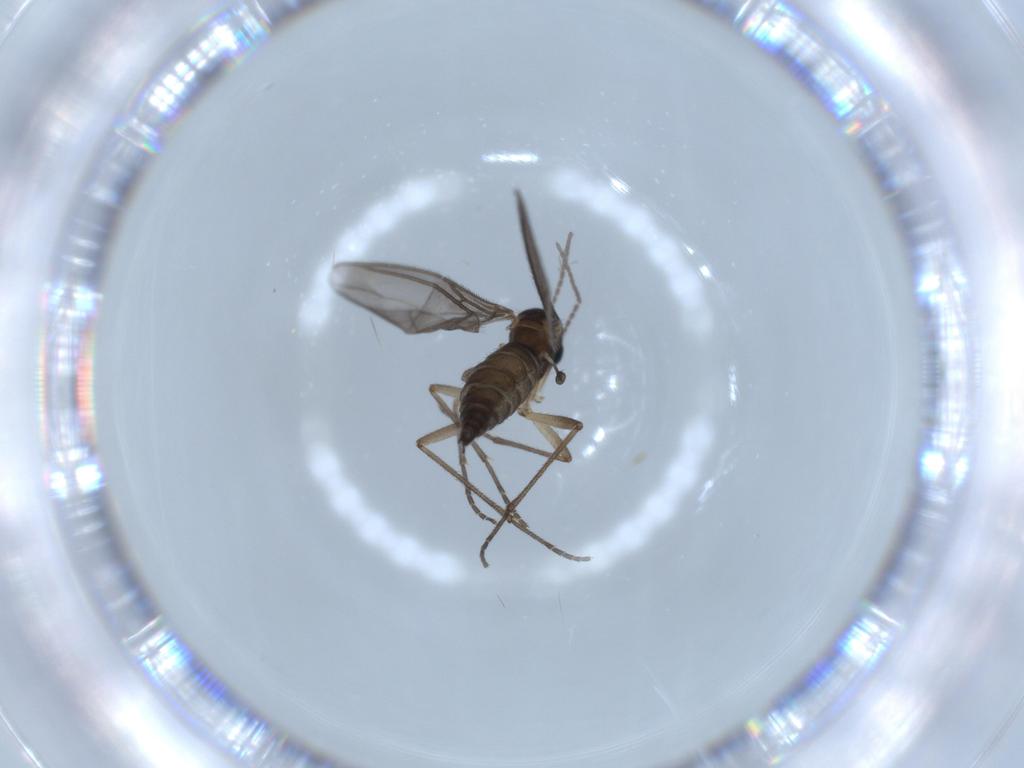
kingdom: Animalia
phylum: Arthropoda
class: Insecta
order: Diptera
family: Sciaridae
